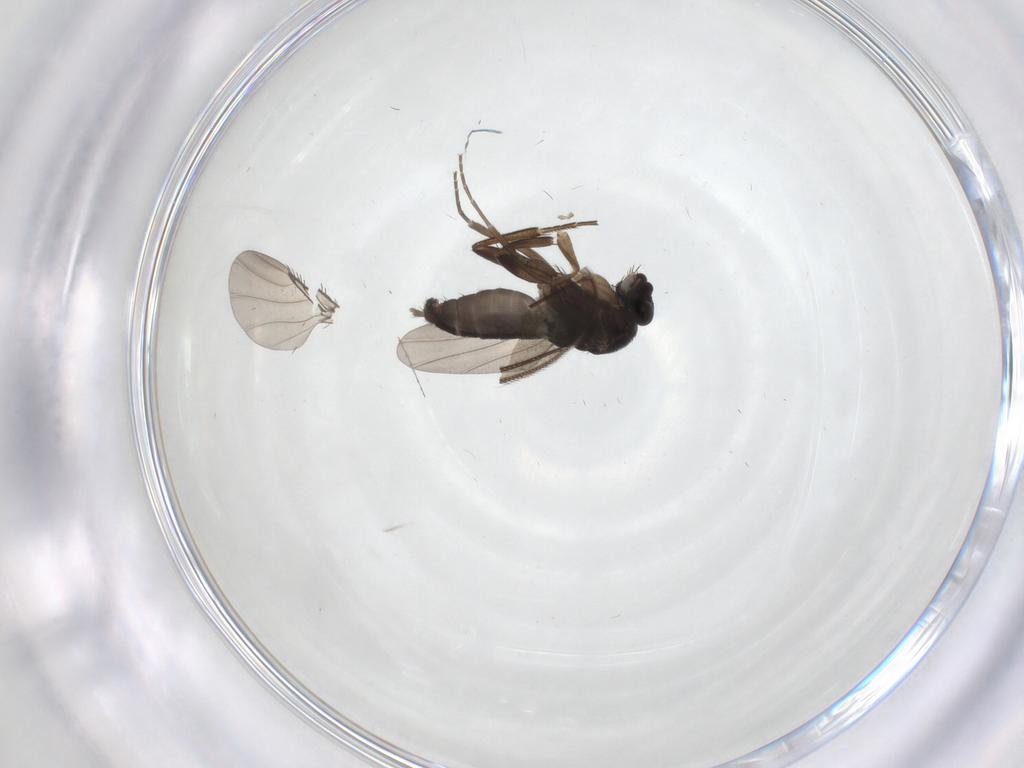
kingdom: Animalia
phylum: Arthropoda
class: Insecta
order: Diptera
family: Phoridae
